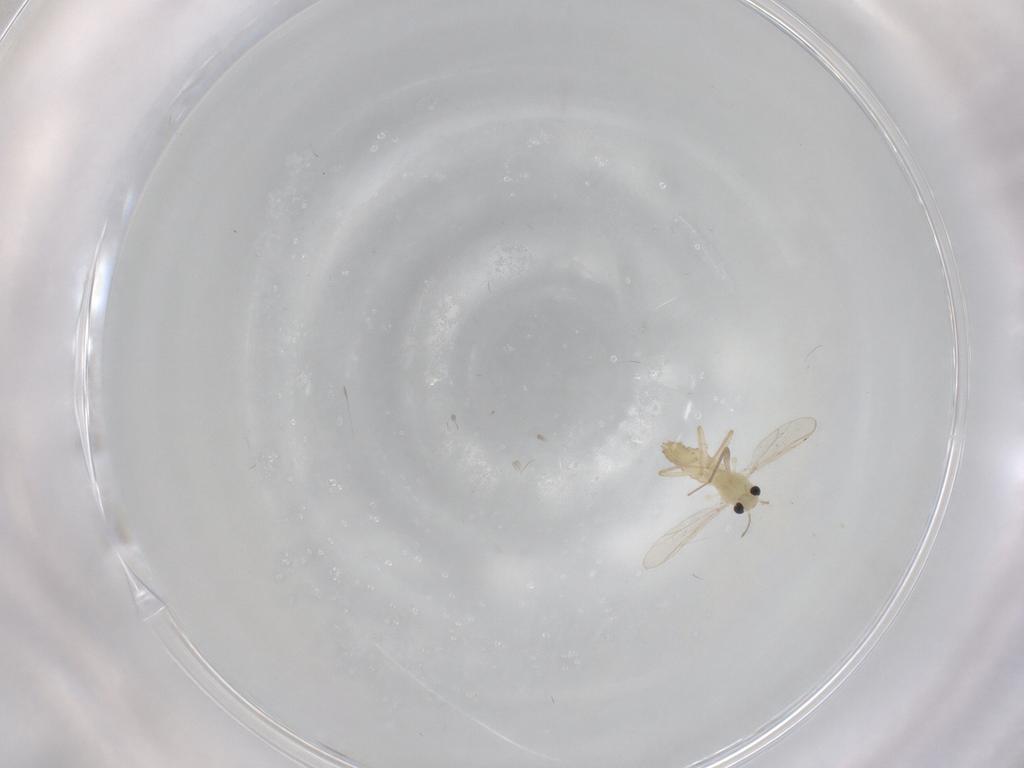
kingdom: Animalia
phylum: Arthropoda
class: Insecta
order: Diptera
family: Chironomidae
